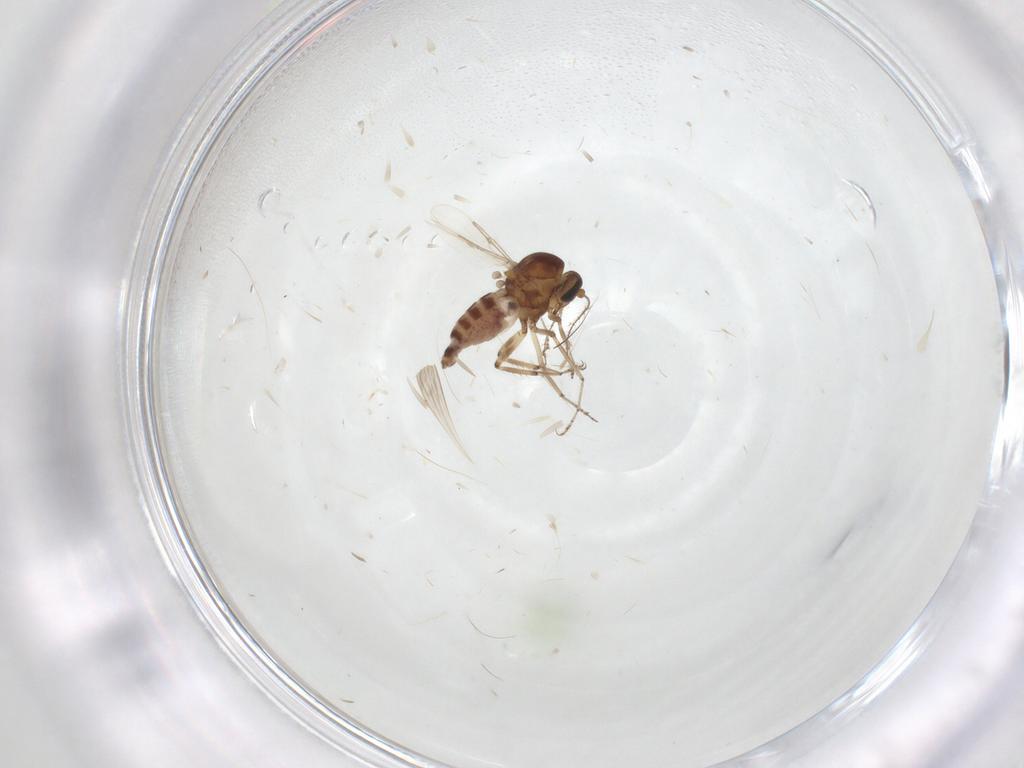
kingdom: Animalia
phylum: Arthropoda
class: Insecta
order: Diptera
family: Ceratopogonidae
